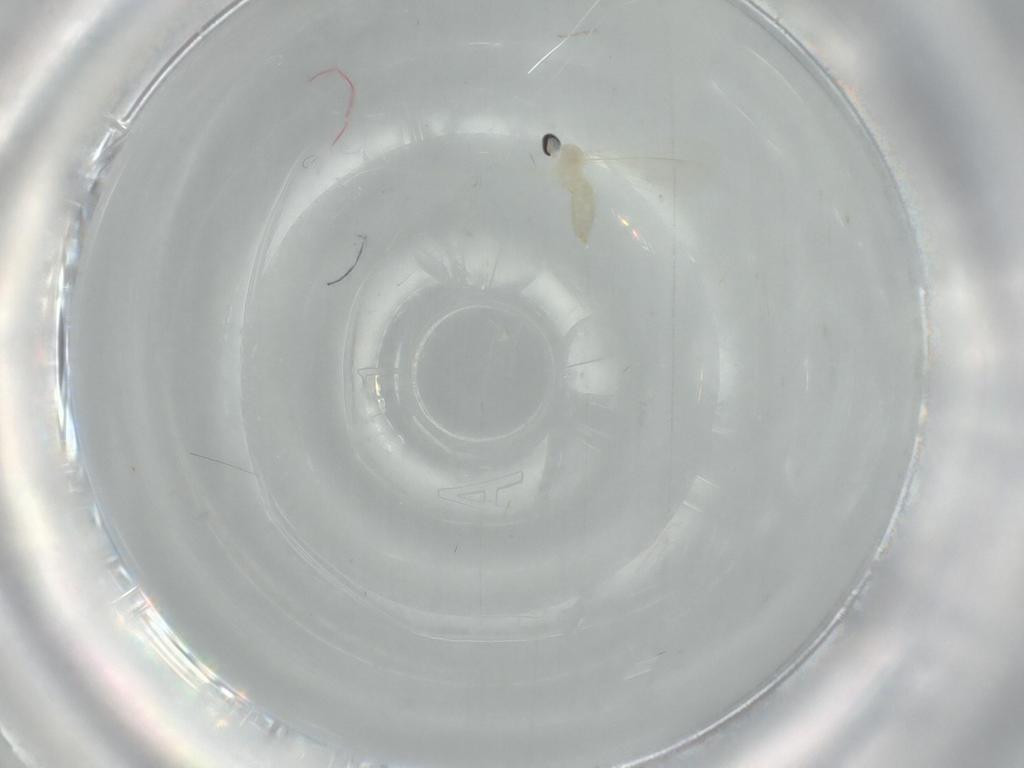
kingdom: Animalia
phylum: Arthropoda
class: Insecta
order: Diptera
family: Cecidomyiidae
